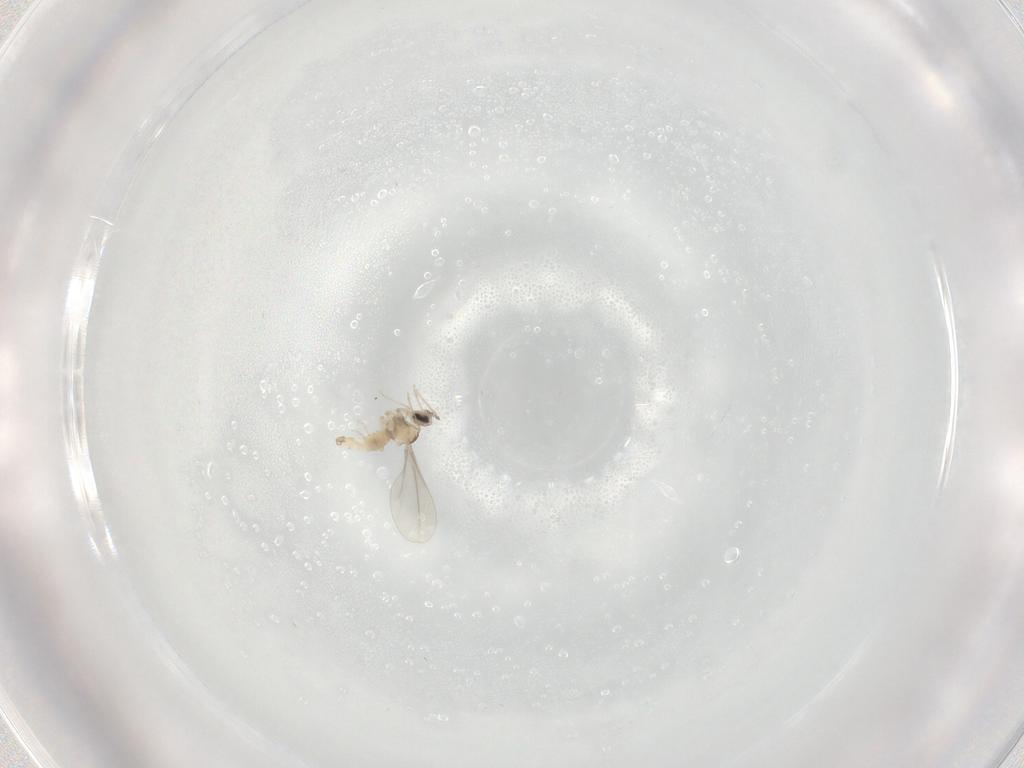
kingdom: Animalia
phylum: Arthropoda
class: Insecta
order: Diptera
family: Cecidomyiidae
